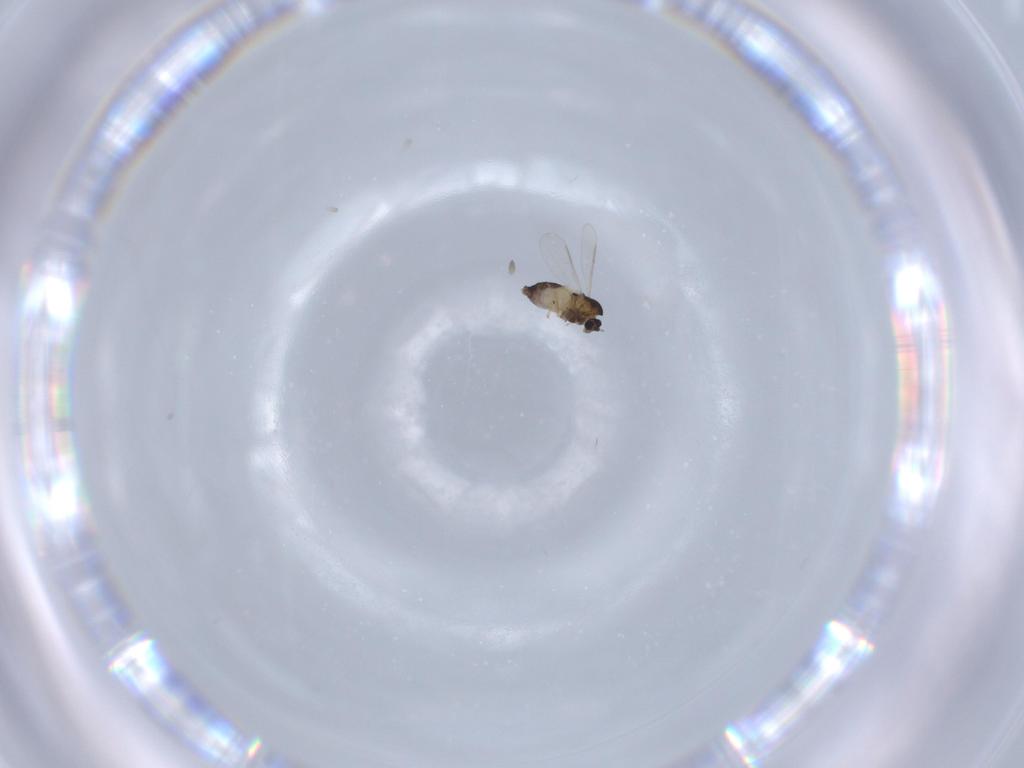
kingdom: Animalia
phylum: Arthropoda
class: Insecta
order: Diptera
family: Chironomidae
